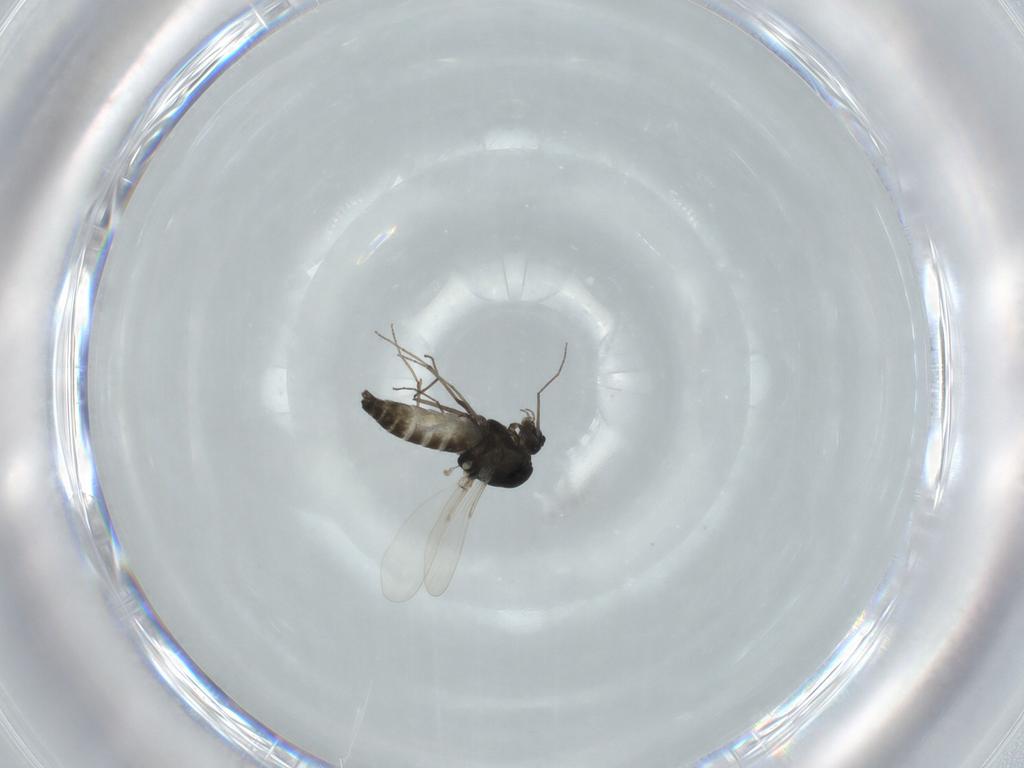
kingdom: Animalia
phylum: Arthropoda
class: Insecta
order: Diptera
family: Chironomidae
